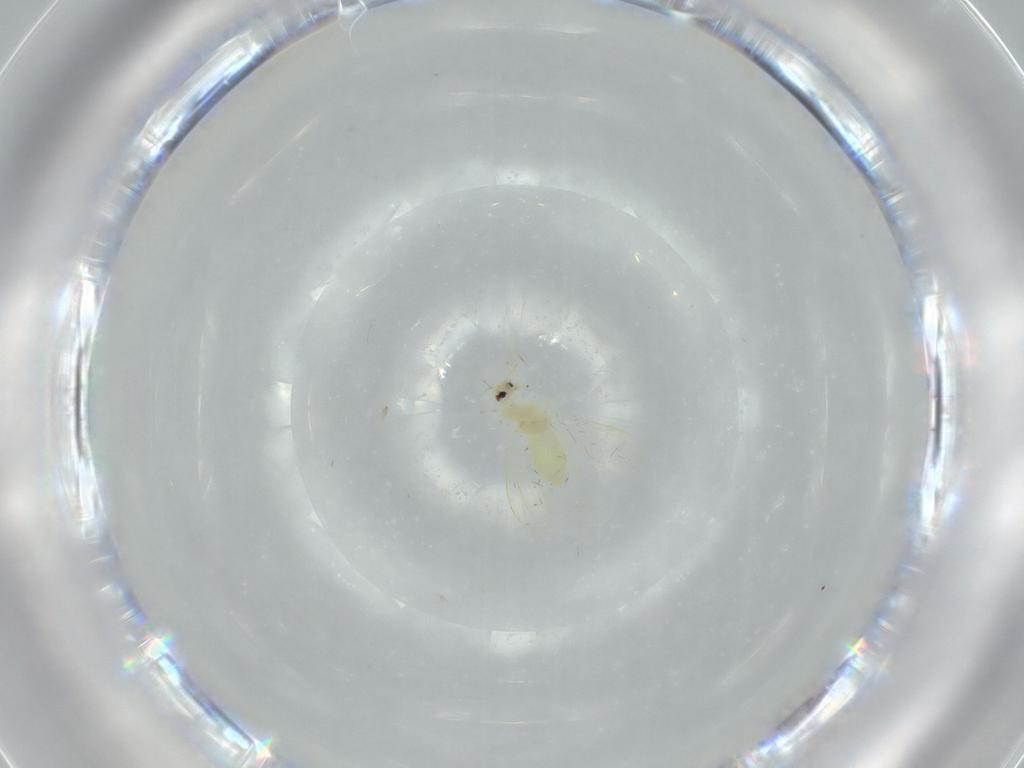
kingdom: Animalia
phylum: Arthropoda
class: Insecta
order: Hemiptera
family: Aleyrodidae
